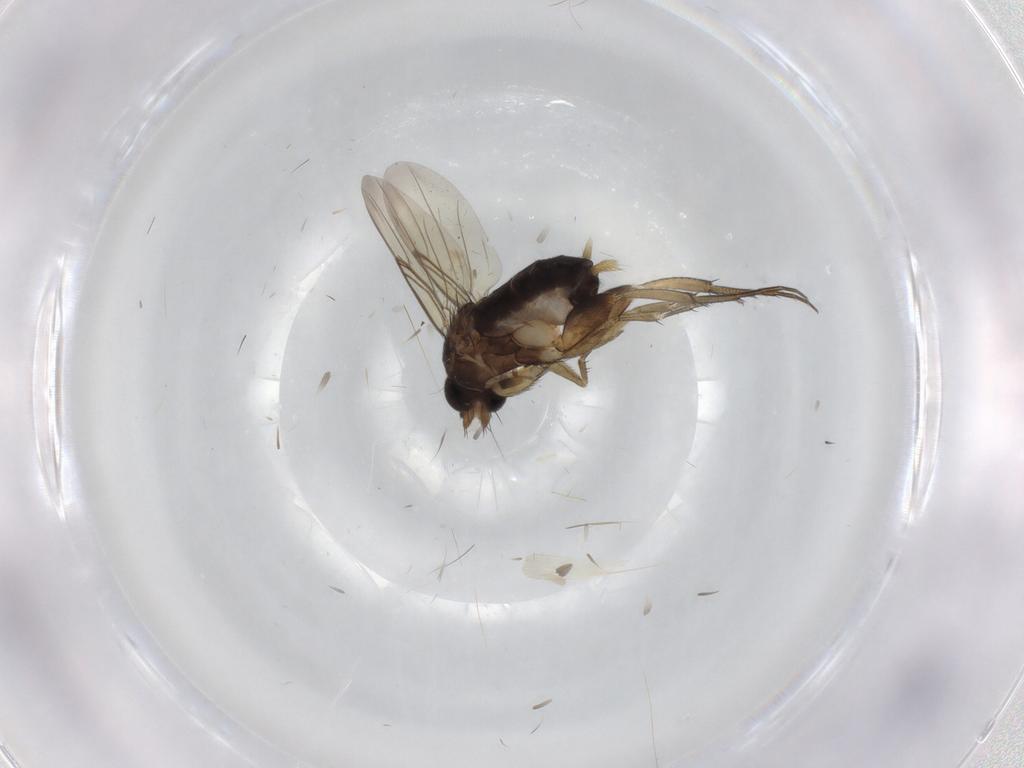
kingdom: Animalia
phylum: Arthropoda
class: Insecta
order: Diptera
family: Phoridae
